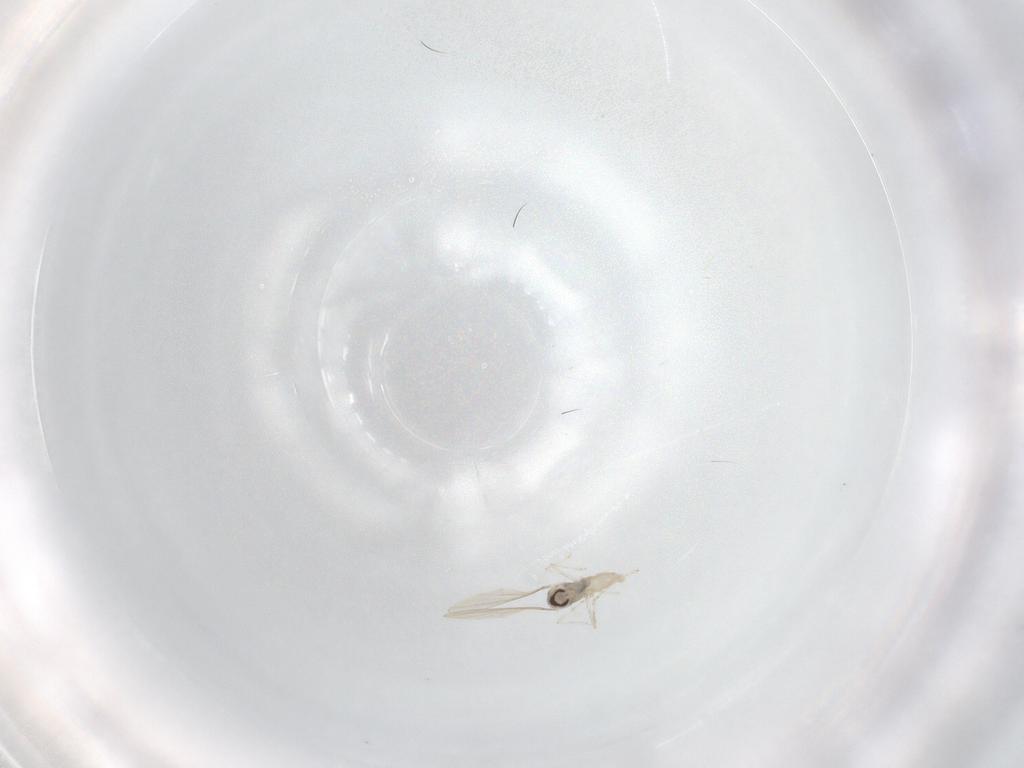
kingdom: Animalia
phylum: Arthropoda
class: Insecta
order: Diptera
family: Cecidomyiidae
